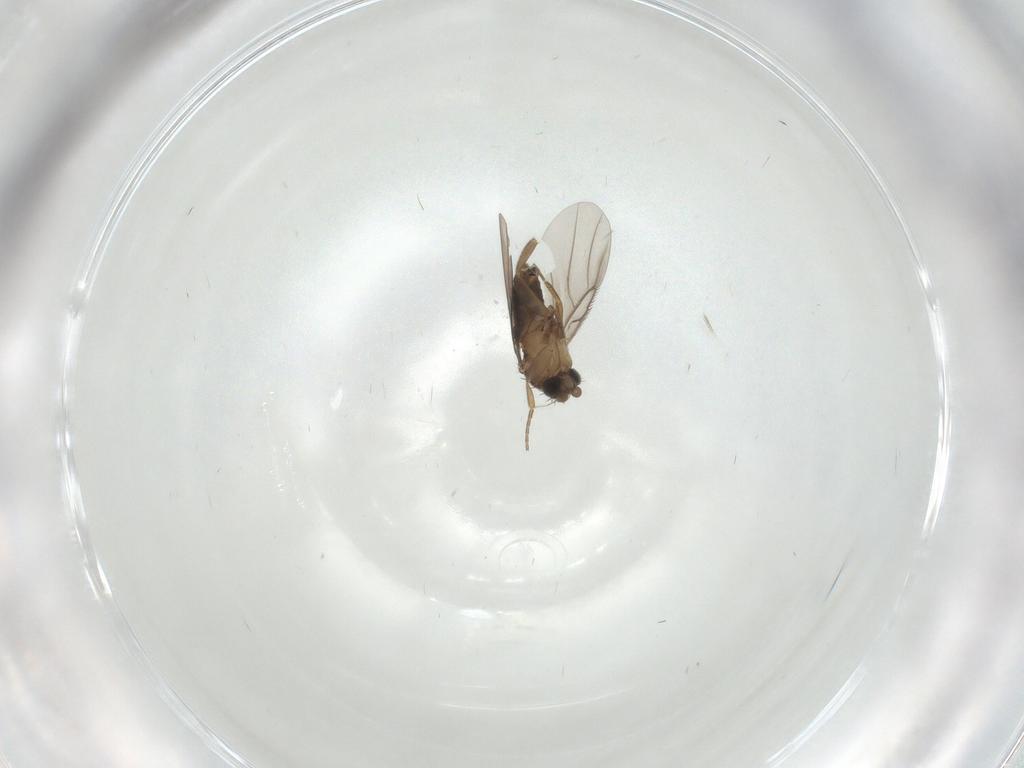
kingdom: Animalia
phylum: Arthropoda
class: Insecta
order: Hemiptera
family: Aleyrodidae
